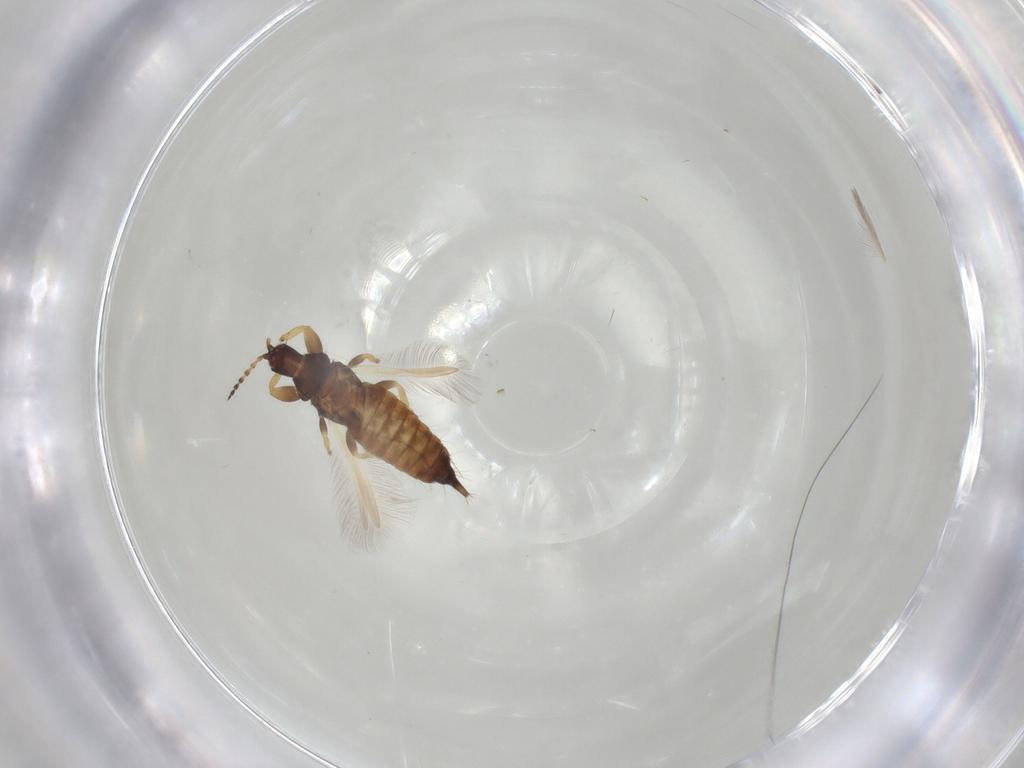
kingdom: Animalia
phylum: Arthropoda
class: Insecta
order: Thysanoptera
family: Phlaeothripidae
